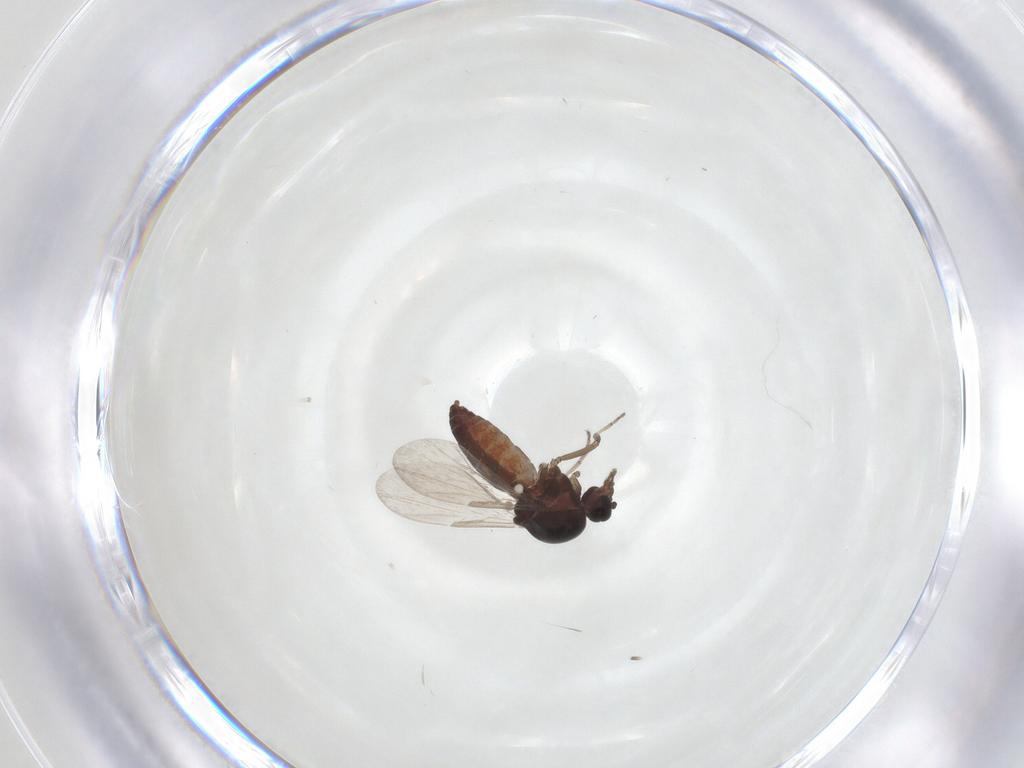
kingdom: Animalia
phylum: Arthropoda
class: Insecta
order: Diptera
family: Ceratopogonidae
